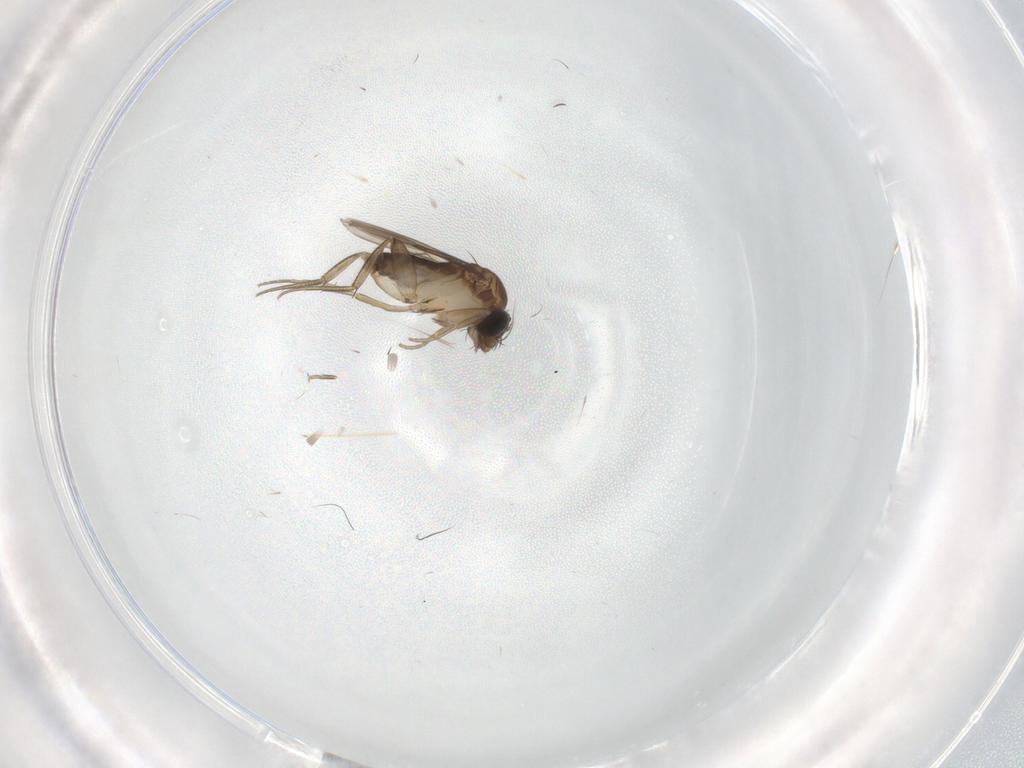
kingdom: Animalia
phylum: Arthropoda
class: Insecta
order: Diptera
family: Phoridae
